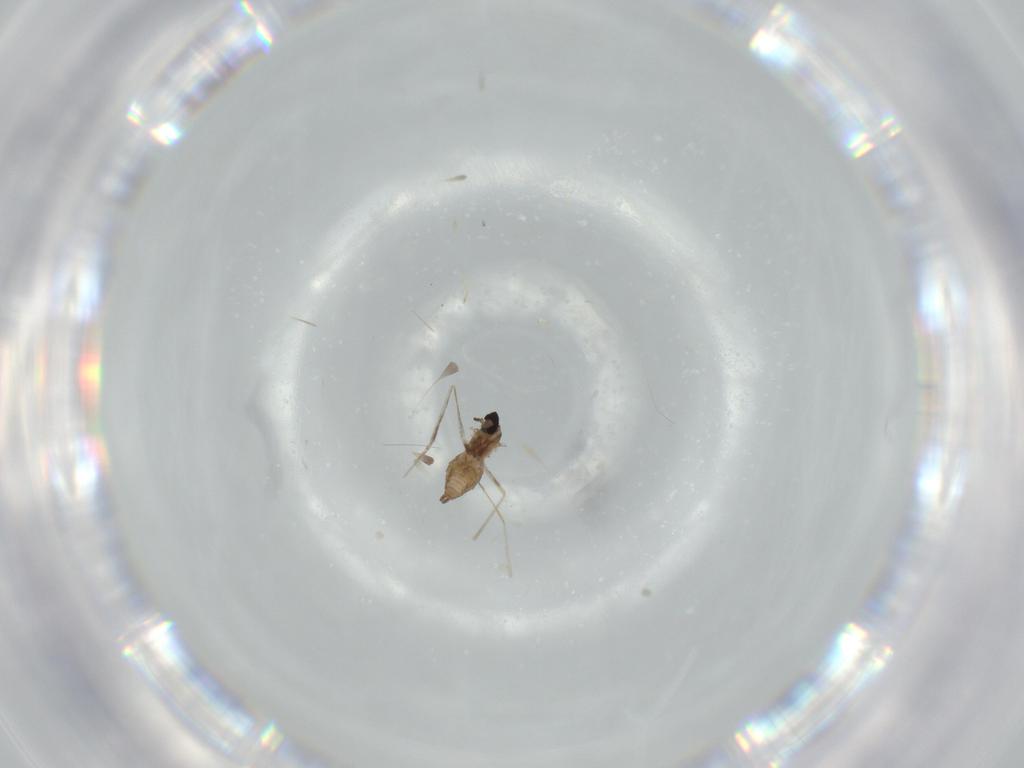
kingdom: Animalia
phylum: Arthropoda
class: Insecta
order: Diptera
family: Cecidomyiidae
